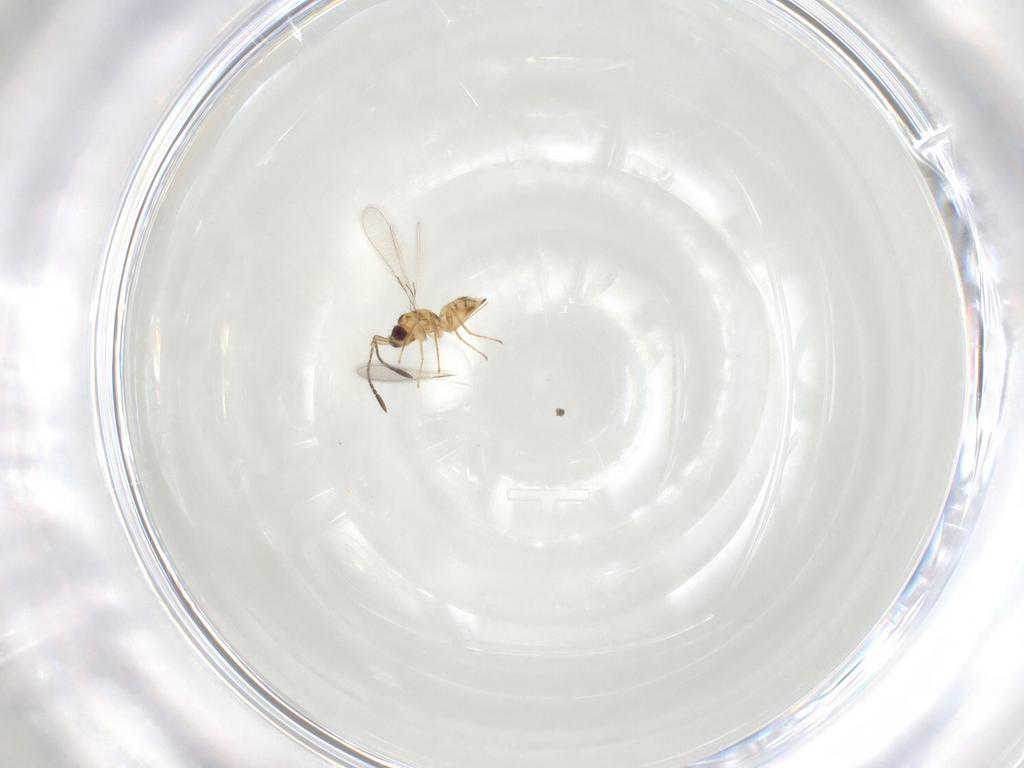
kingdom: Animalia
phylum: Arthropoda
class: Insecta
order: Hymenoptera
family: Mymaridae
